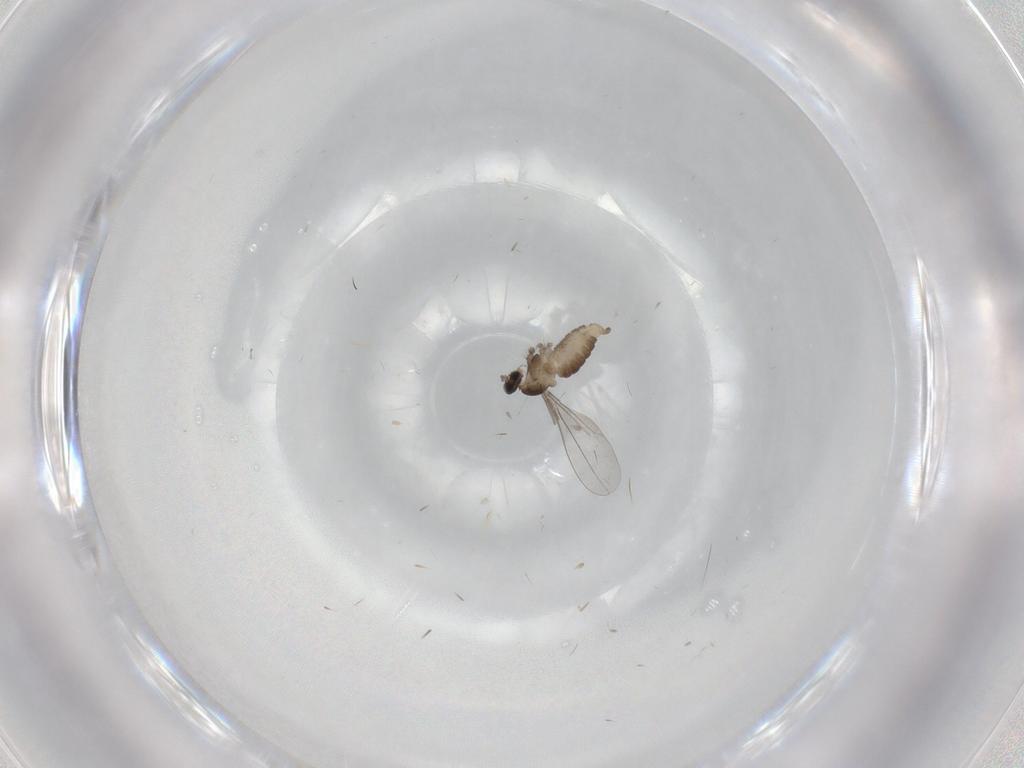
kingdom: Animalia
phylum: Arthropoda
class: Insecta
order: Diptera
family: Cecidomyiidae
